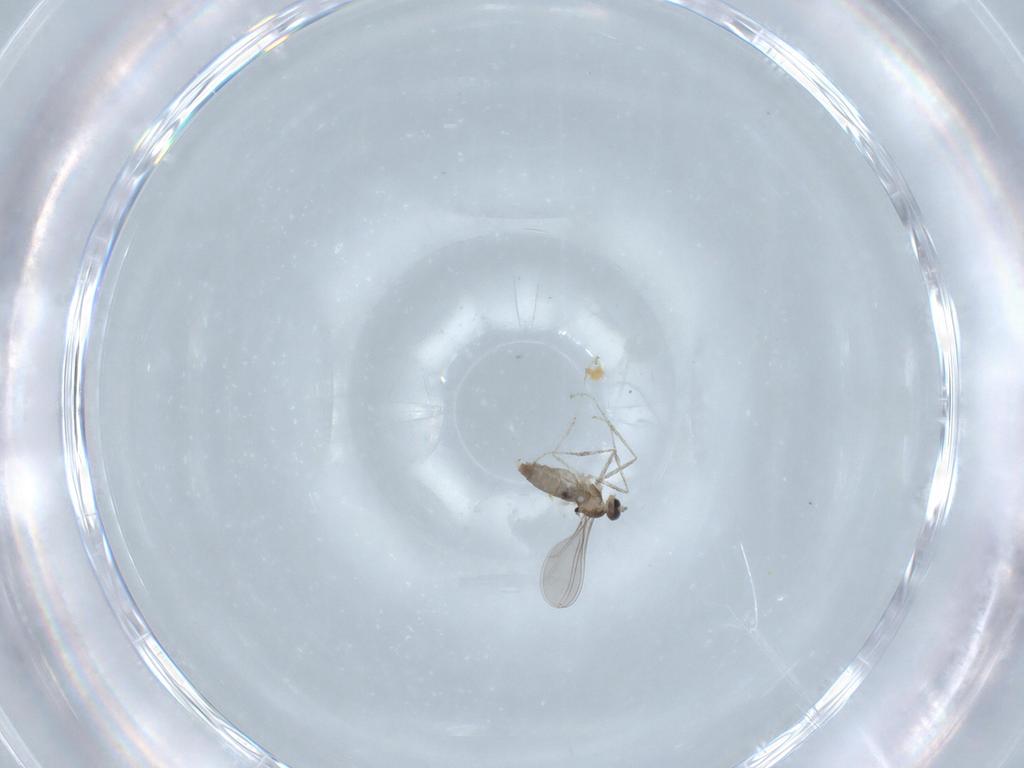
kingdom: Animalia
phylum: Arthropoda
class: Insecta
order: Diptera
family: Cecidomyiidae
